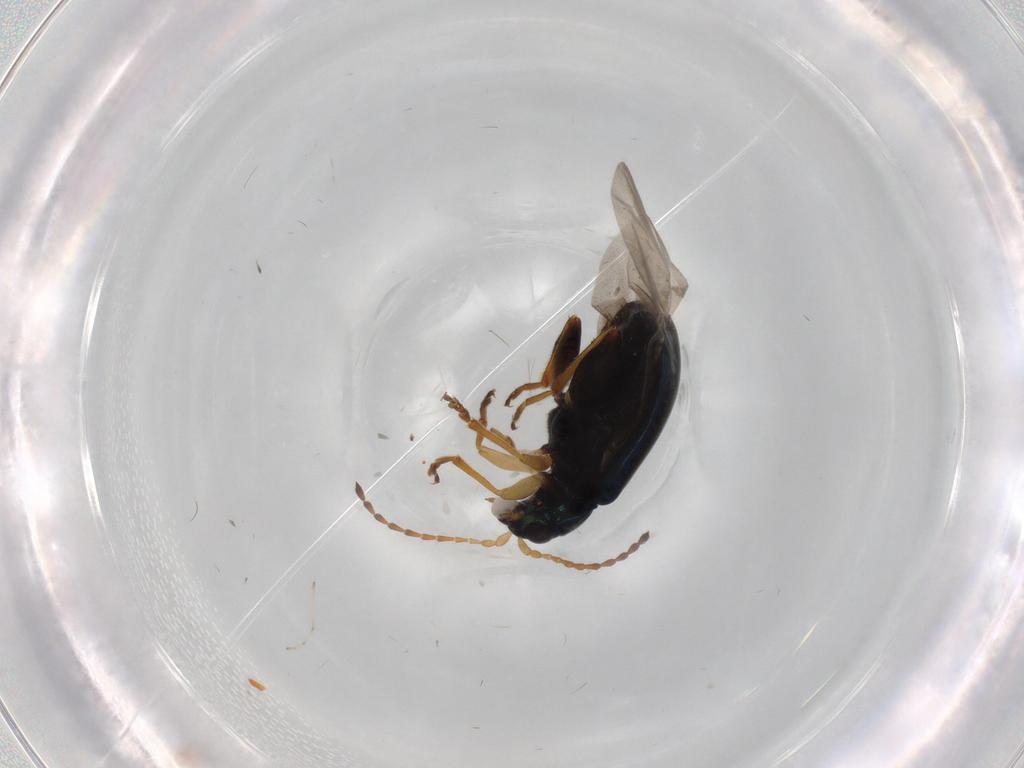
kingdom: Animalia
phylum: Arthropoda
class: Insecta
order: Coleoptera
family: Chrysomelidae
